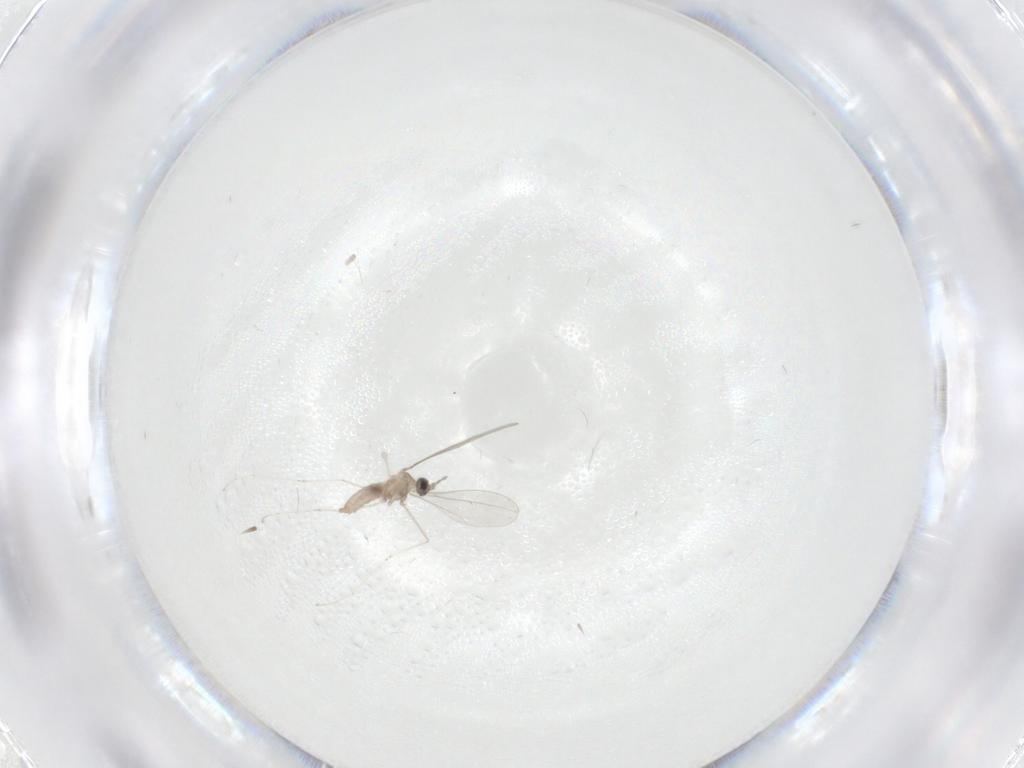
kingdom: Animalia
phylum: Arthropoda
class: Insecta
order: Diptera
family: Cecidomyiidae
